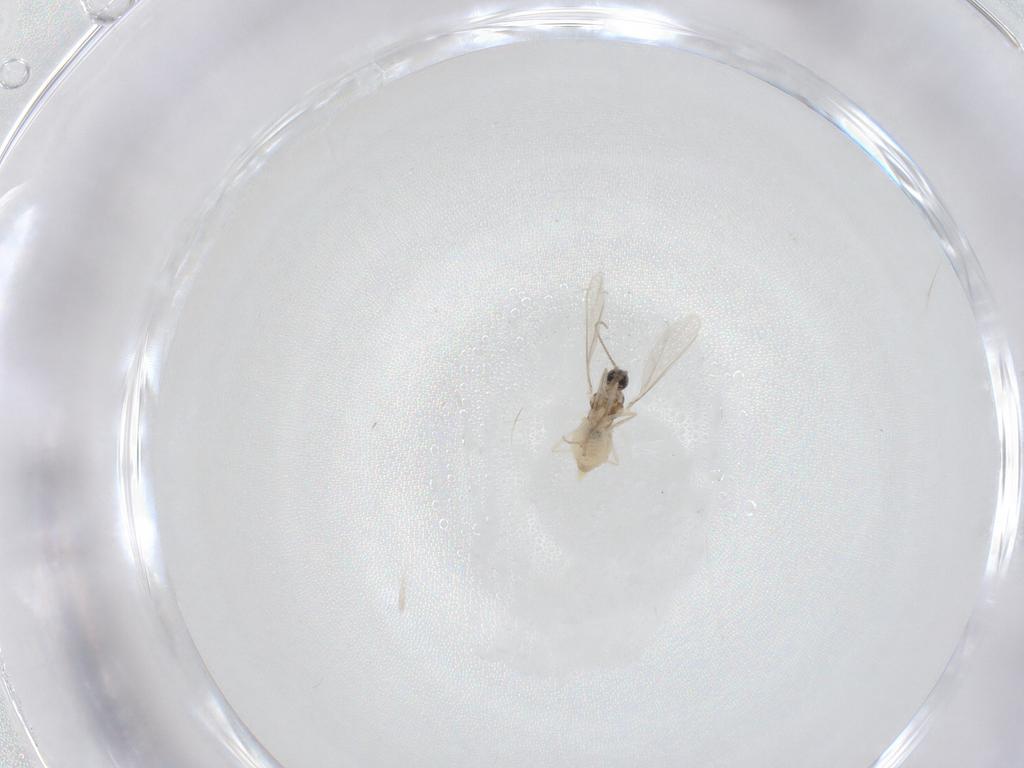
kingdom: Animalia
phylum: Arthropoda
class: Insecta
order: Diptera
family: Cecidomyiidae
